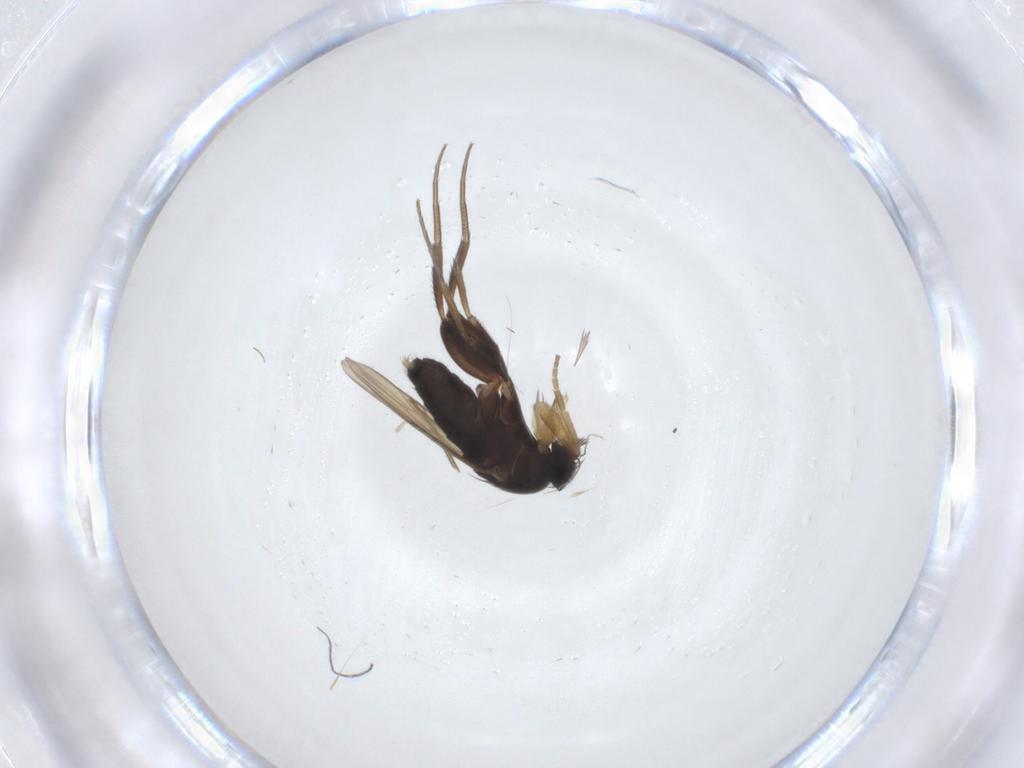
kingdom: Animalia
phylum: Arthropoda
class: Insecta
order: Diptera
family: Phoridae
